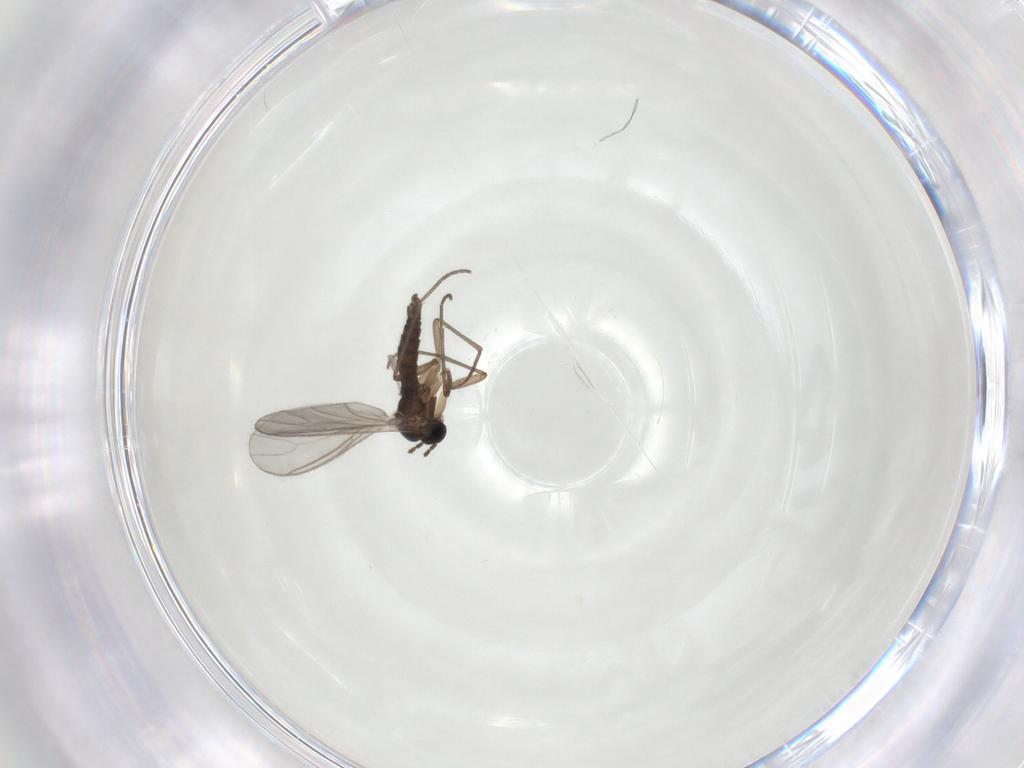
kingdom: Animalia
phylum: Arthropoda
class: Insecta
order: Diptera
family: Sciaridae
